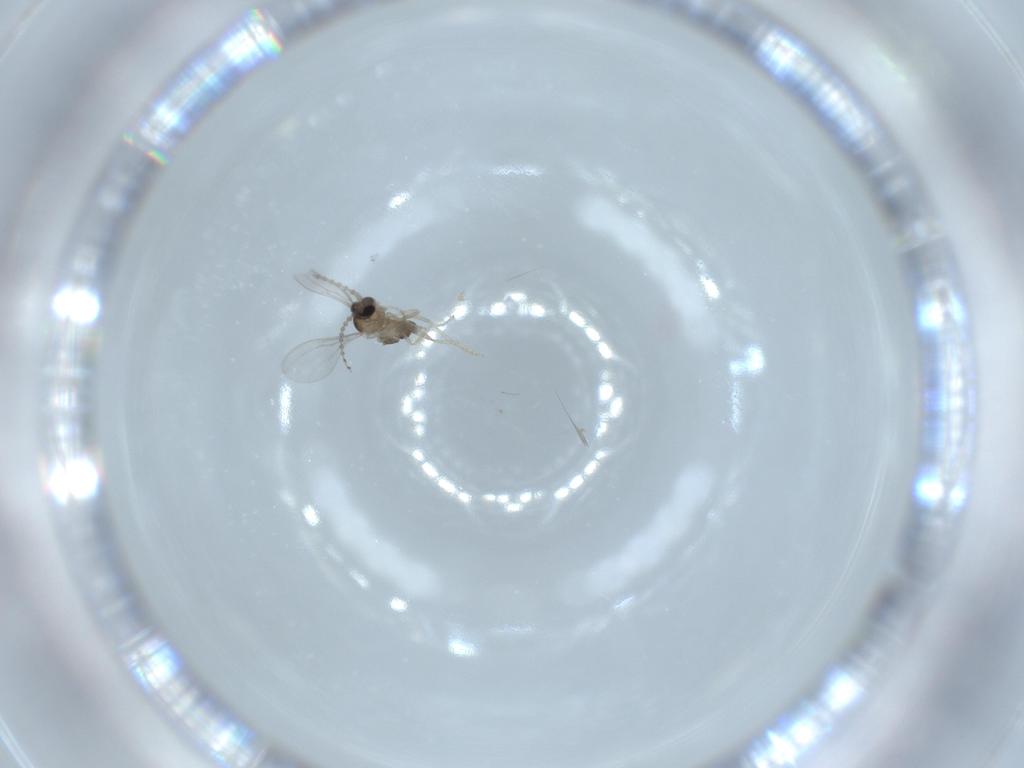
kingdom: Animalia
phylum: Arthropoda
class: Insecta
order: Diptera
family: Cecidomyiidae
